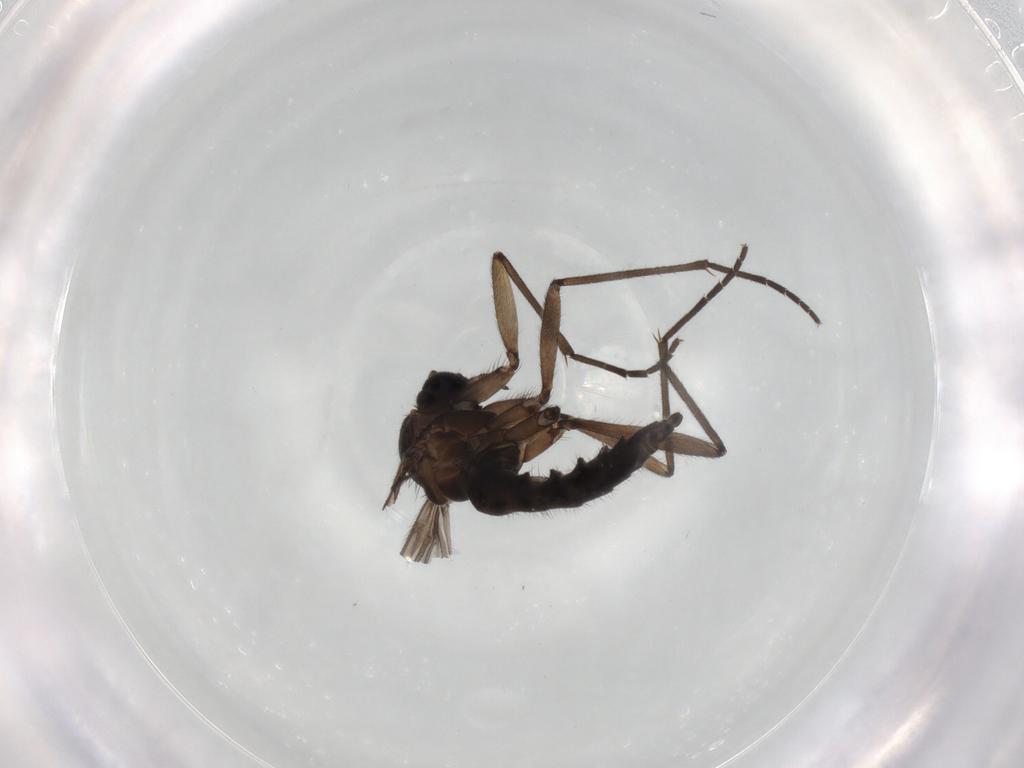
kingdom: Animalia
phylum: Arthropoda
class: Insecta
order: Diptera
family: Sciaridae
